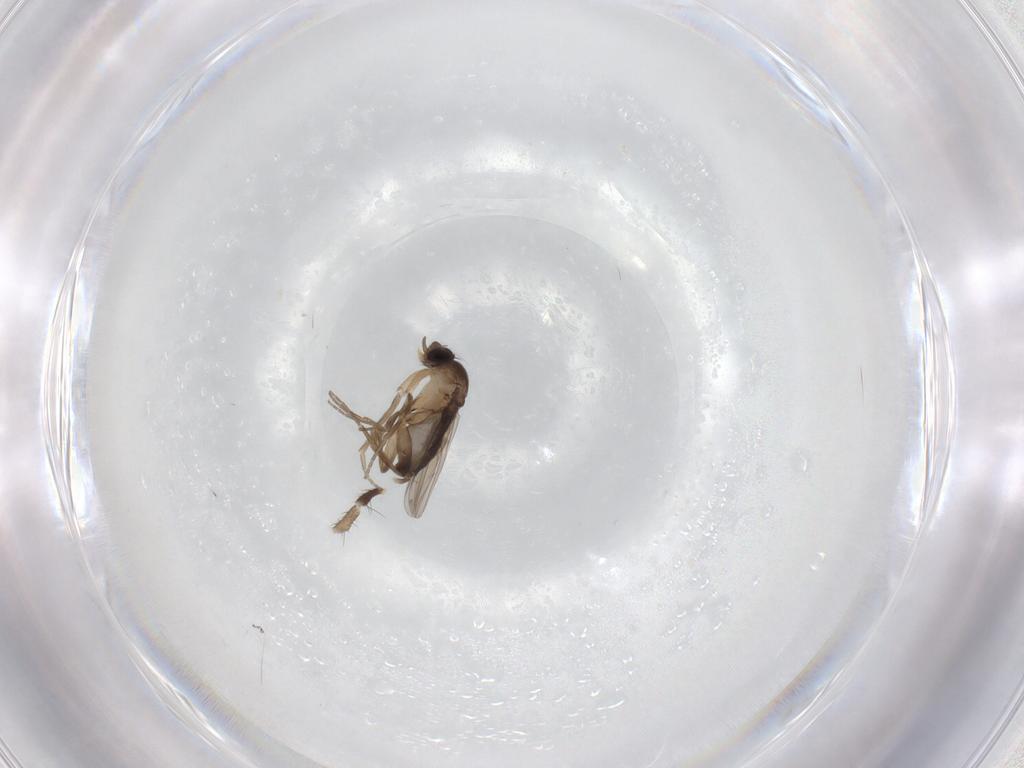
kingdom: Animalia
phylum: Arthropoda
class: Insecta
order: Diptera
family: Phoridae
